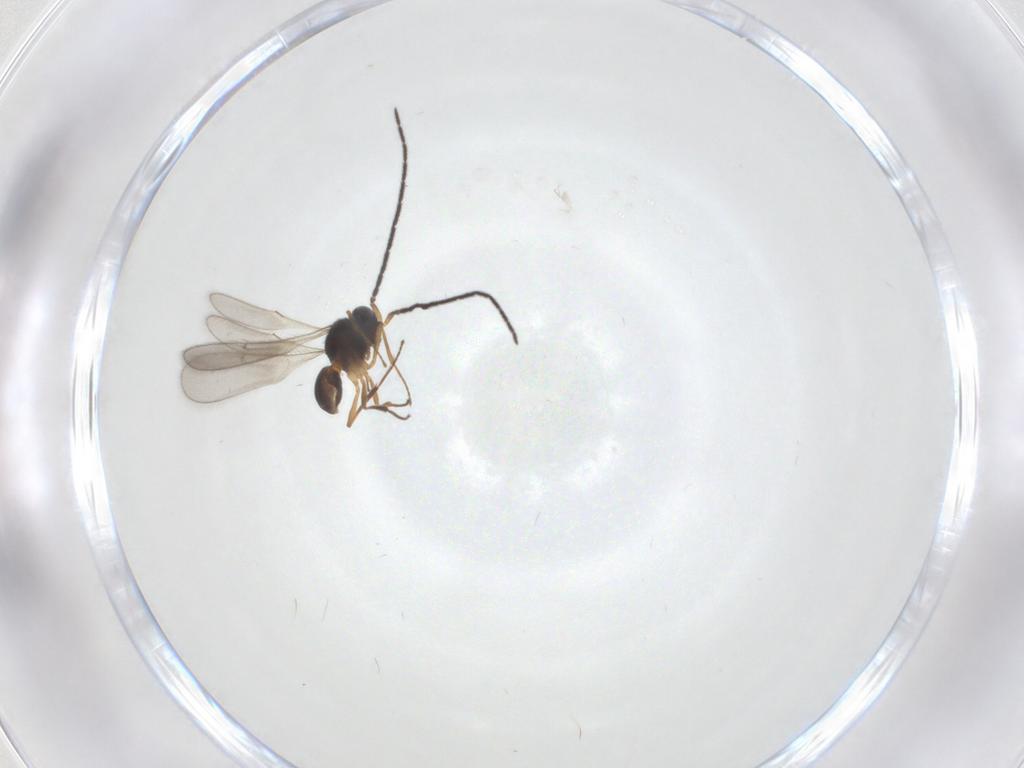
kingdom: Animalia
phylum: Arthropoda
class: Insecta
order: Hymenoptera
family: Scelionidae
